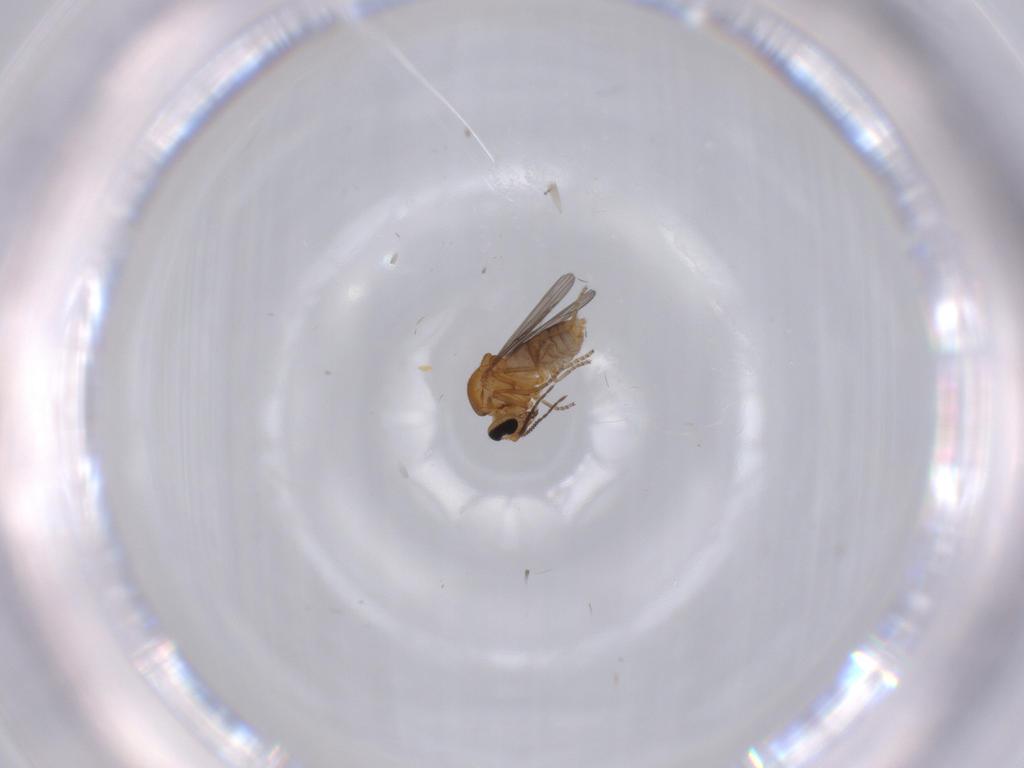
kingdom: Animalia
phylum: Arthropoda
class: Insecta
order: Diptera
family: Ceratopogonidae
